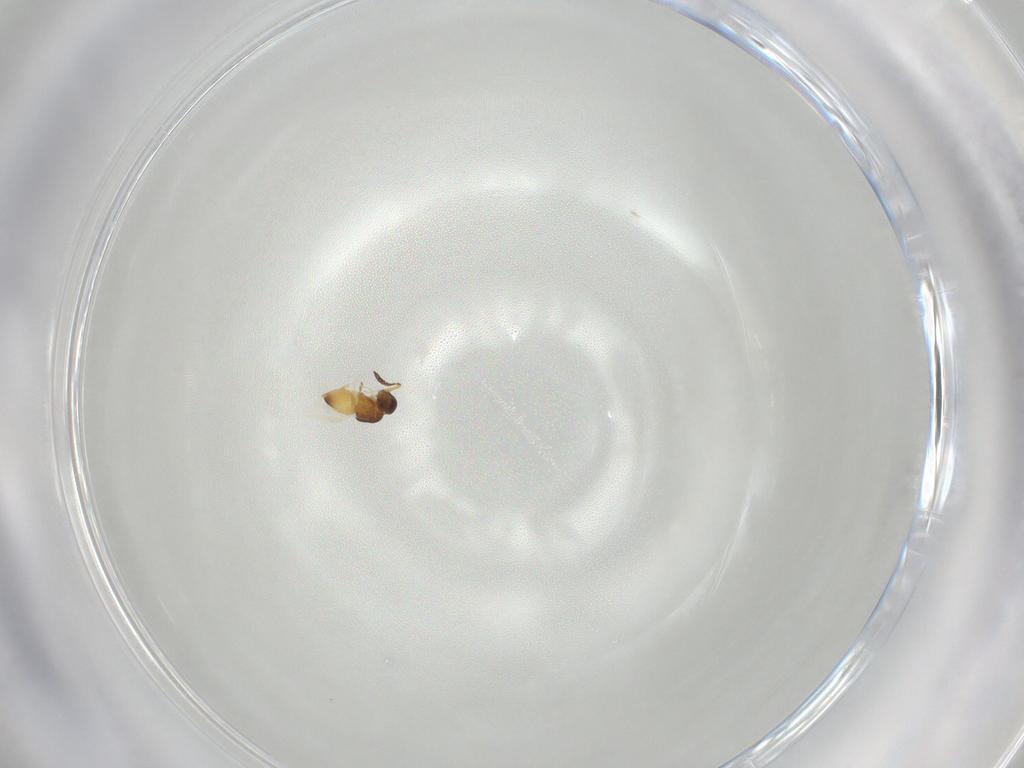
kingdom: Animalia
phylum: Arthropoda
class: Insecta
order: Hymenoptera
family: Ceraphronidae
